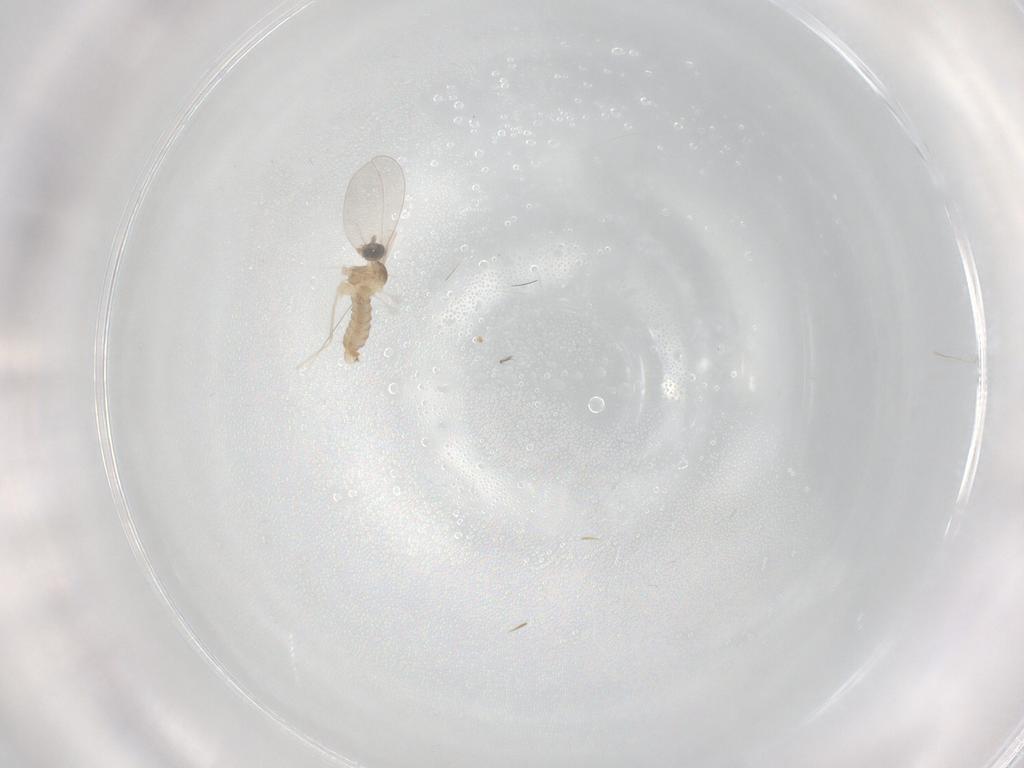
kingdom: Animalia
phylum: Arthropoda
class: Insecta
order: Diptera
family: Cecidomyiidae
